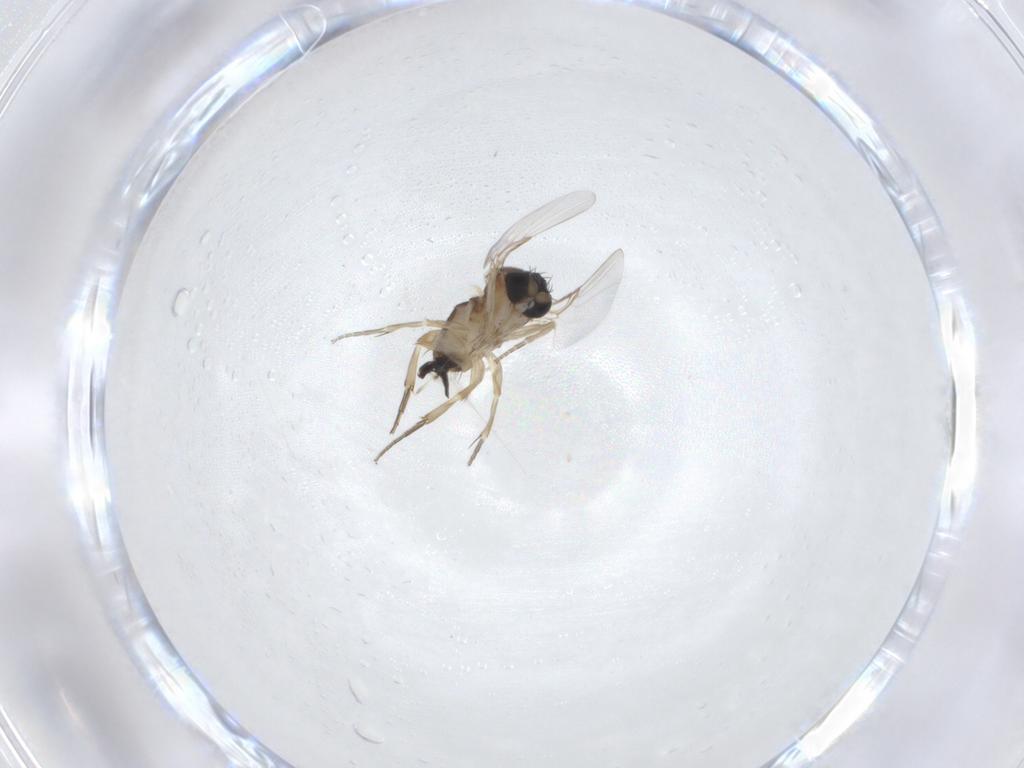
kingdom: Animalia
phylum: Arthropoda
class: Insecta
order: Diptera
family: Phoridae
